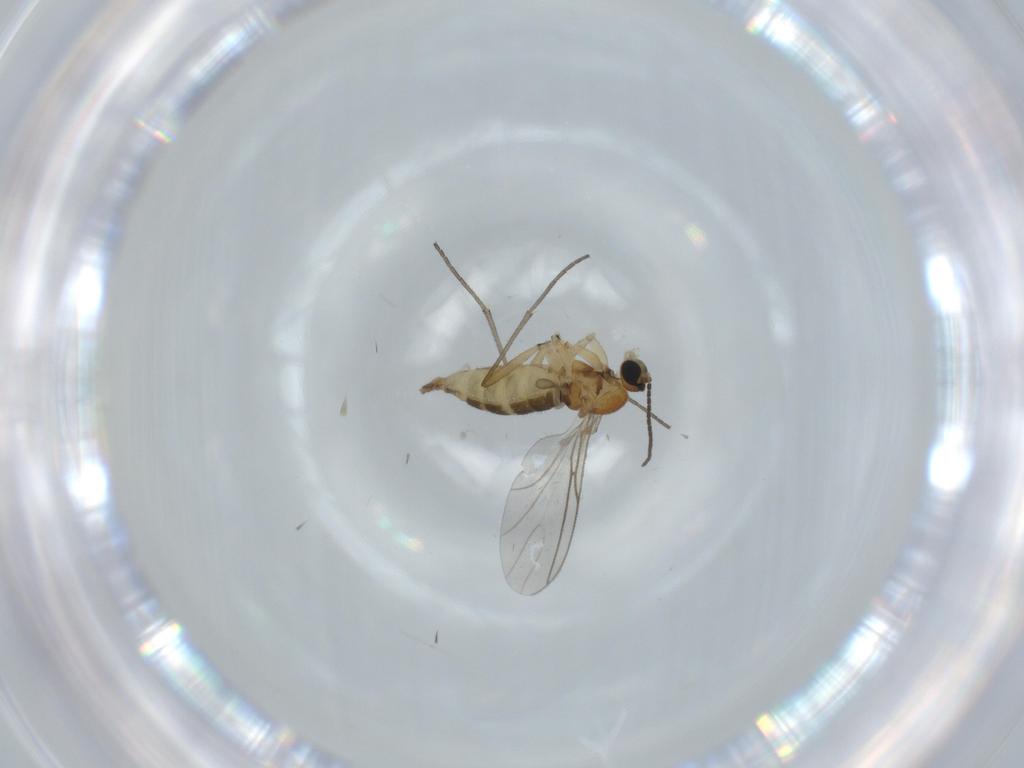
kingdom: Animalia
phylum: Arthropoda
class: Insecta
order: Diptera
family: Sciaridae
